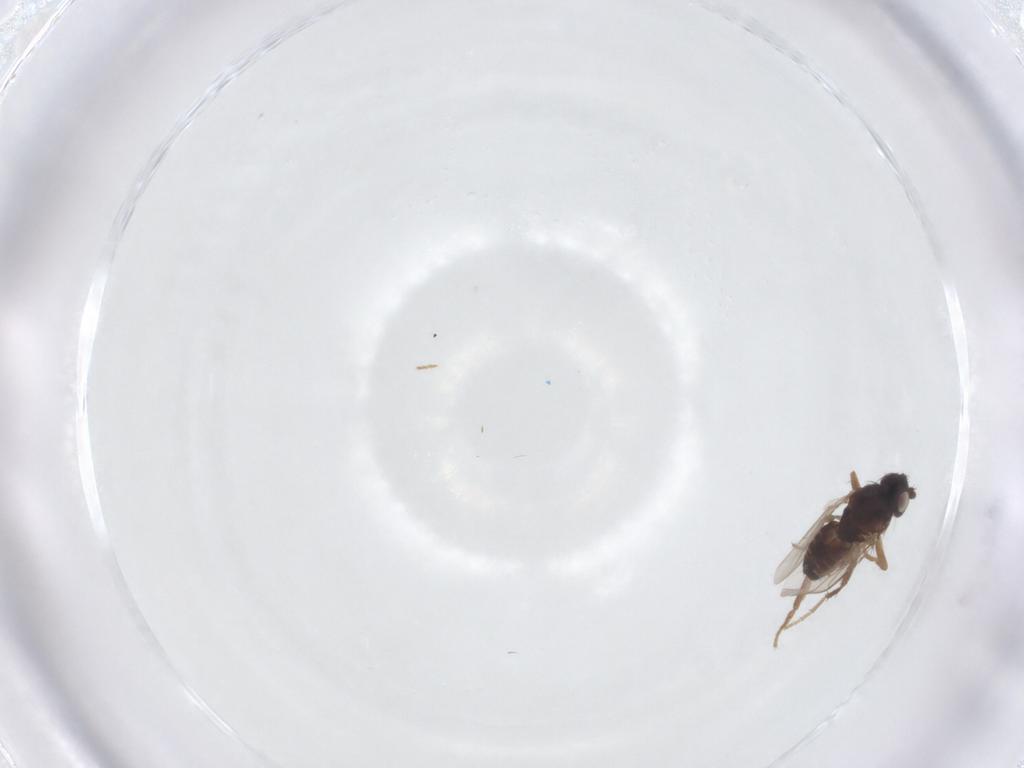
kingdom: Animalia
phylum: Arthropoda
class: Insecta
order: Diptera
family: Sphaeroceridae
